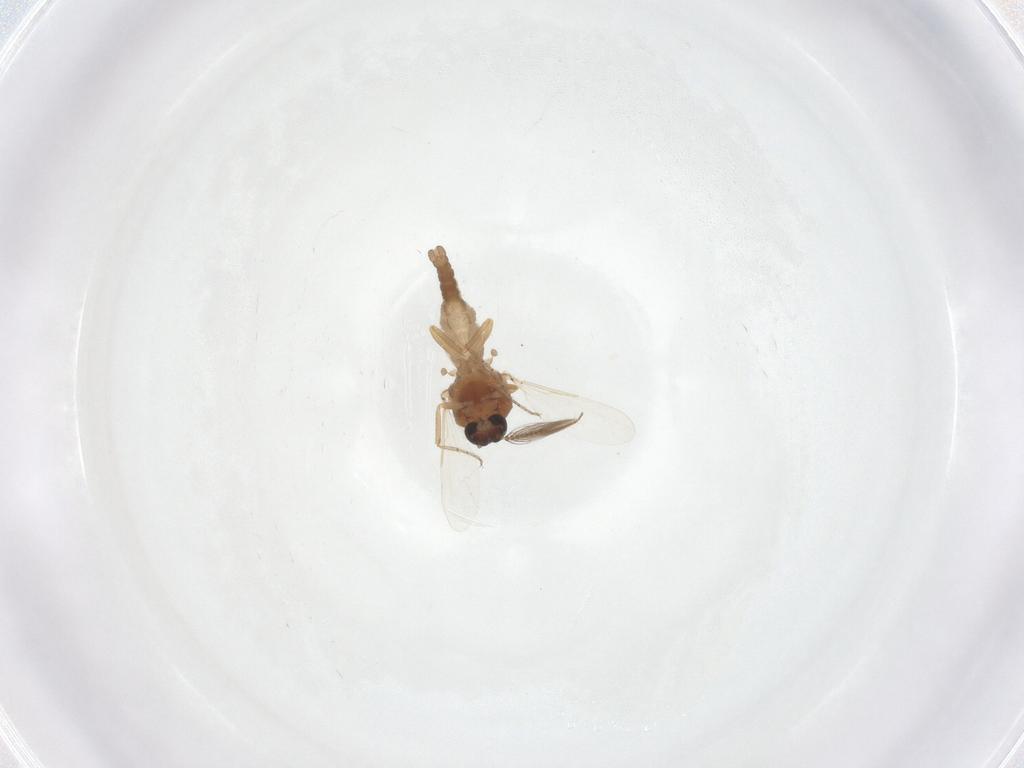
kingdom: Animalia
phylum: Arthropoda
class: Insecta
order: Diptera
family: Ceratopogonidae
